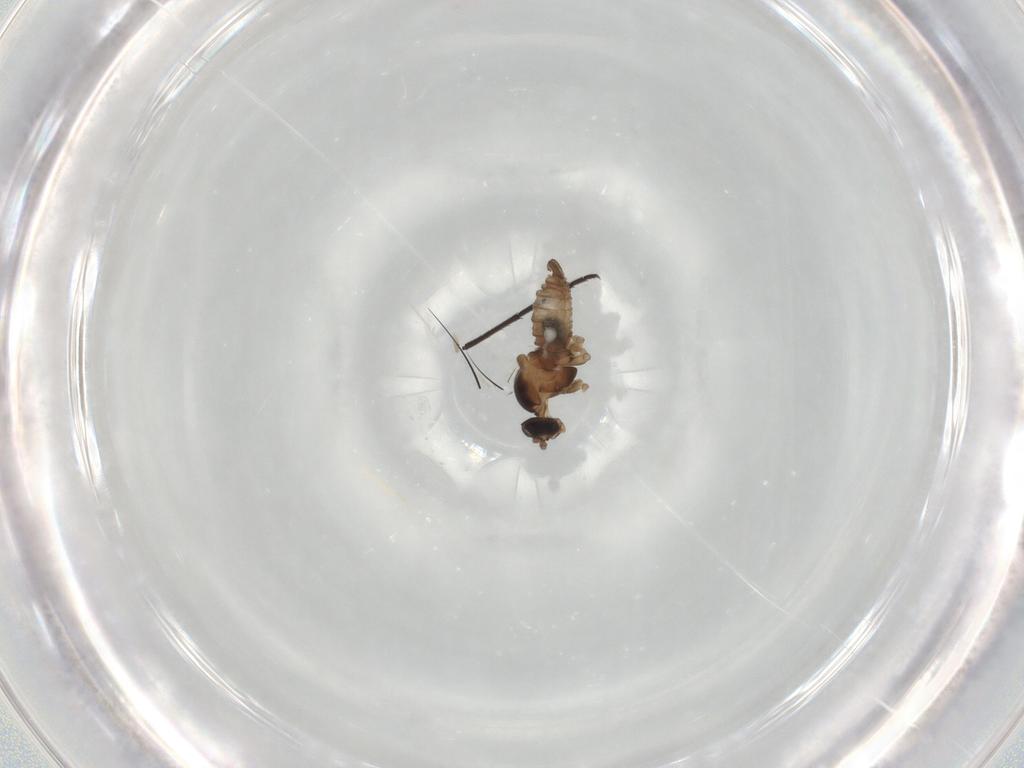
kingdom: Animalia
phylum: Arthropoda
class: Insecta
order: Diptera
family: Cecidomyiidae
